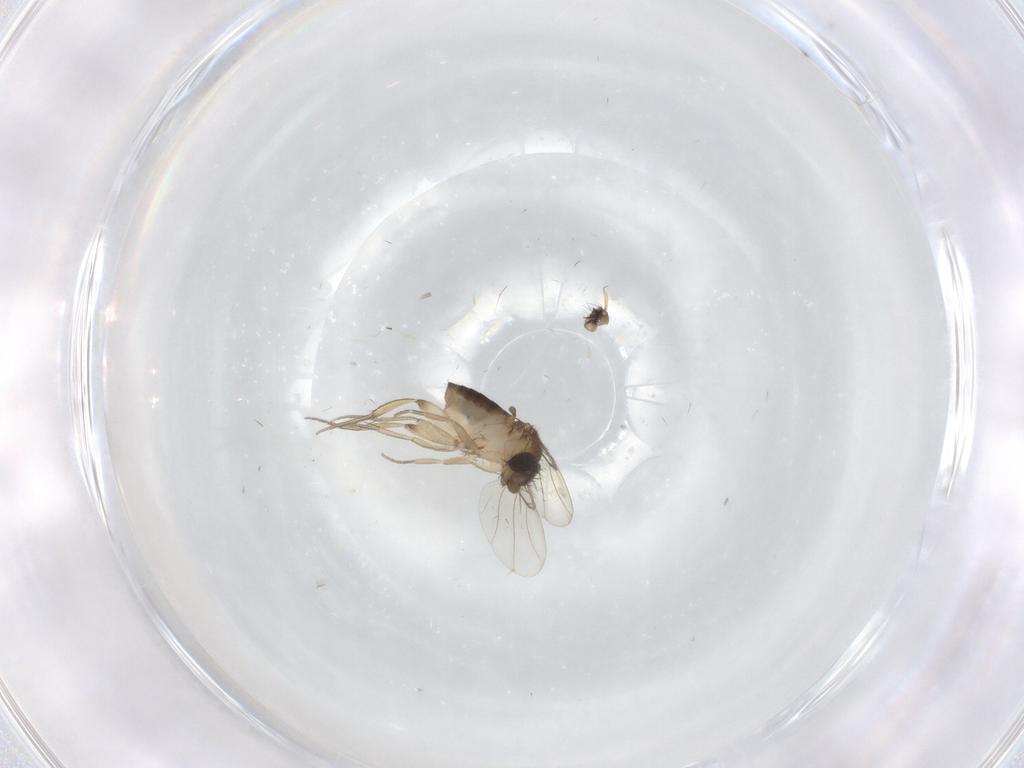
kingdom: Animalia
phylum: Arthropoda
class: Insecta
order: Diptera
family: Phoridae
